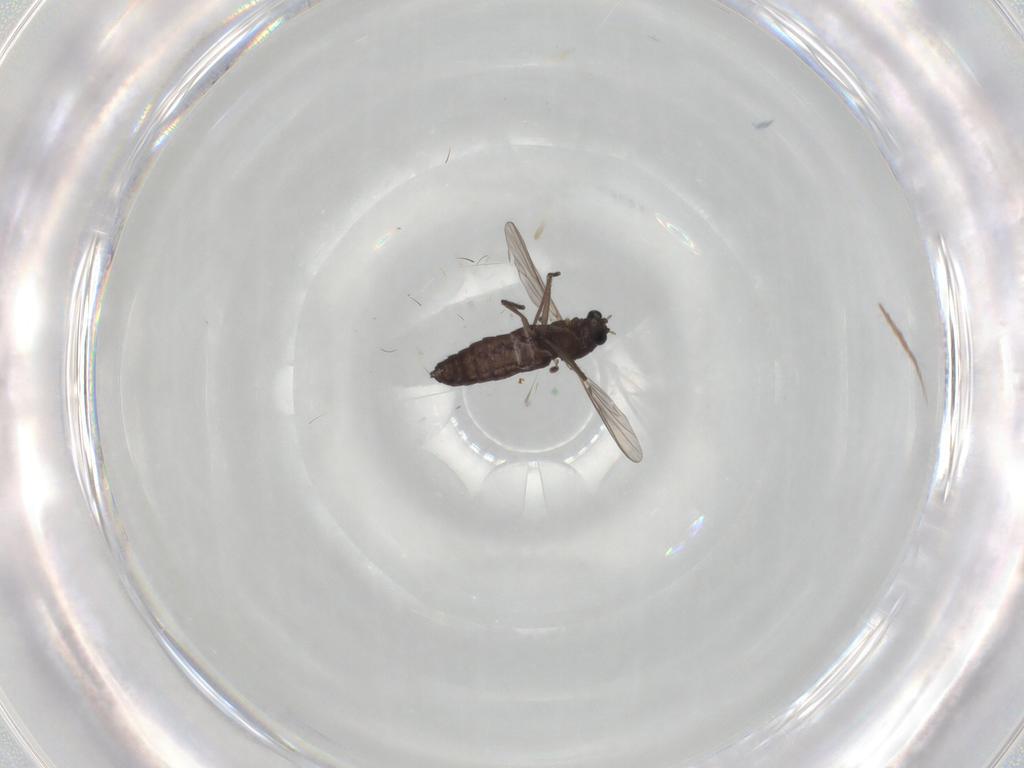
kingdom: Animalia
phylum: Arthropoda
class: Insecta
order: Diptera
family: Chironomidae
